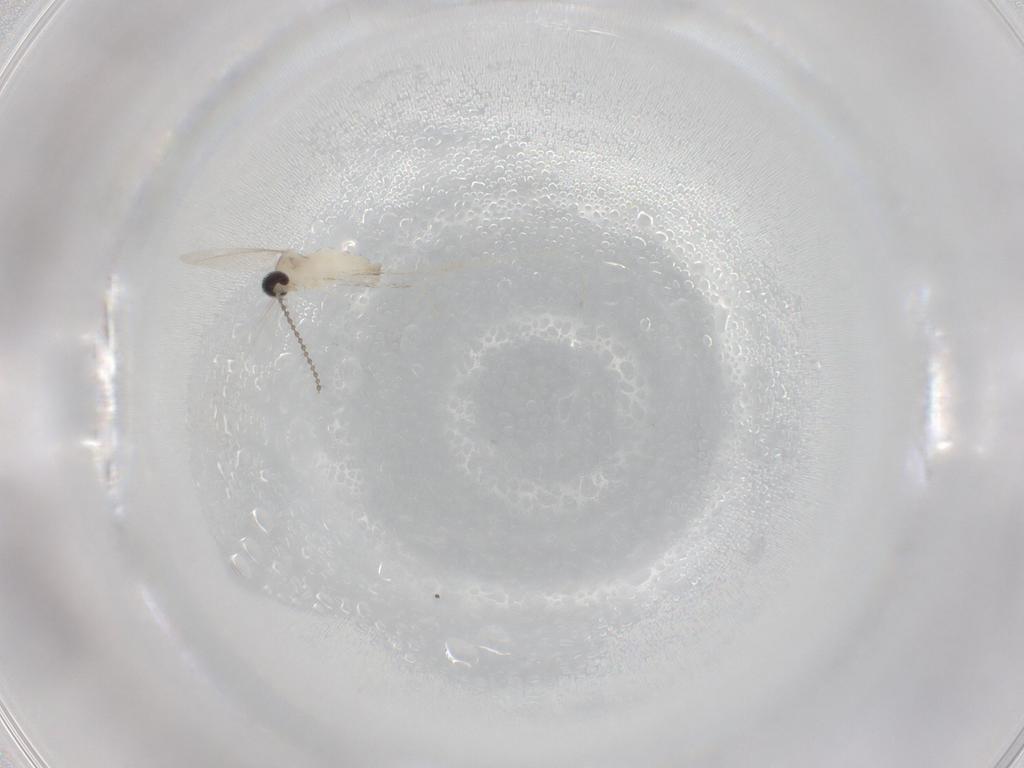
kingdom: Animalia
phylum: Arthropoda
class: Insecta
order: Diptera
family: Cecidomyiidae
